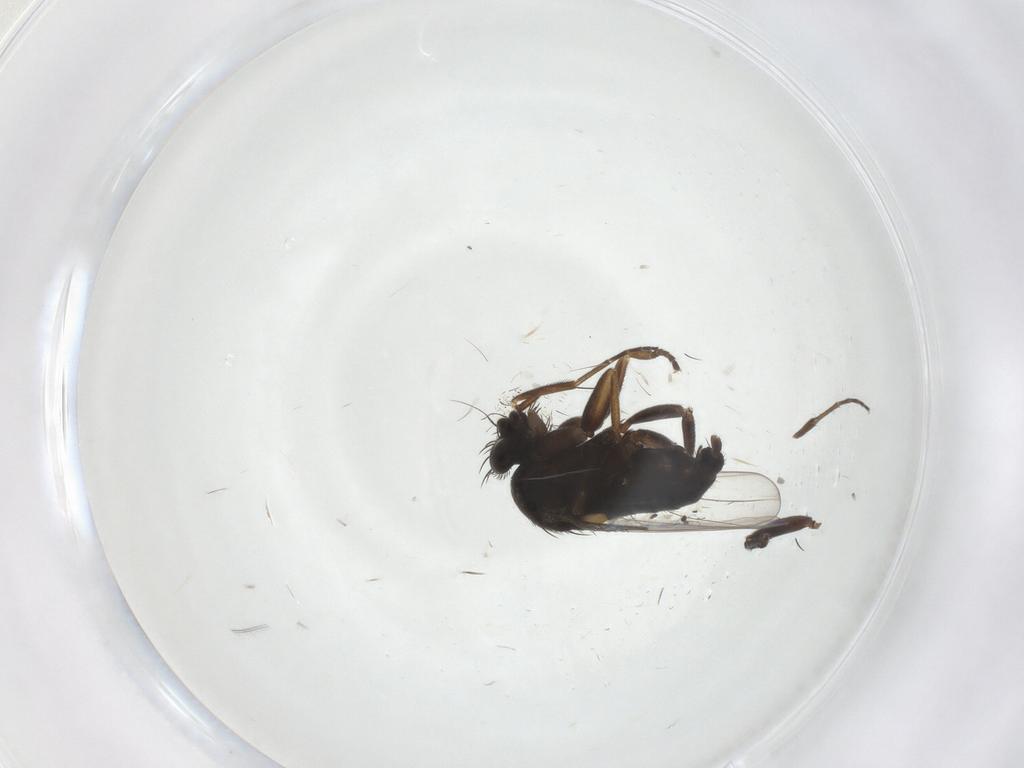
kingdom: Animalia
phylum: Arthropoda
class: Insecta
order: Diptera
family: Phoridae
